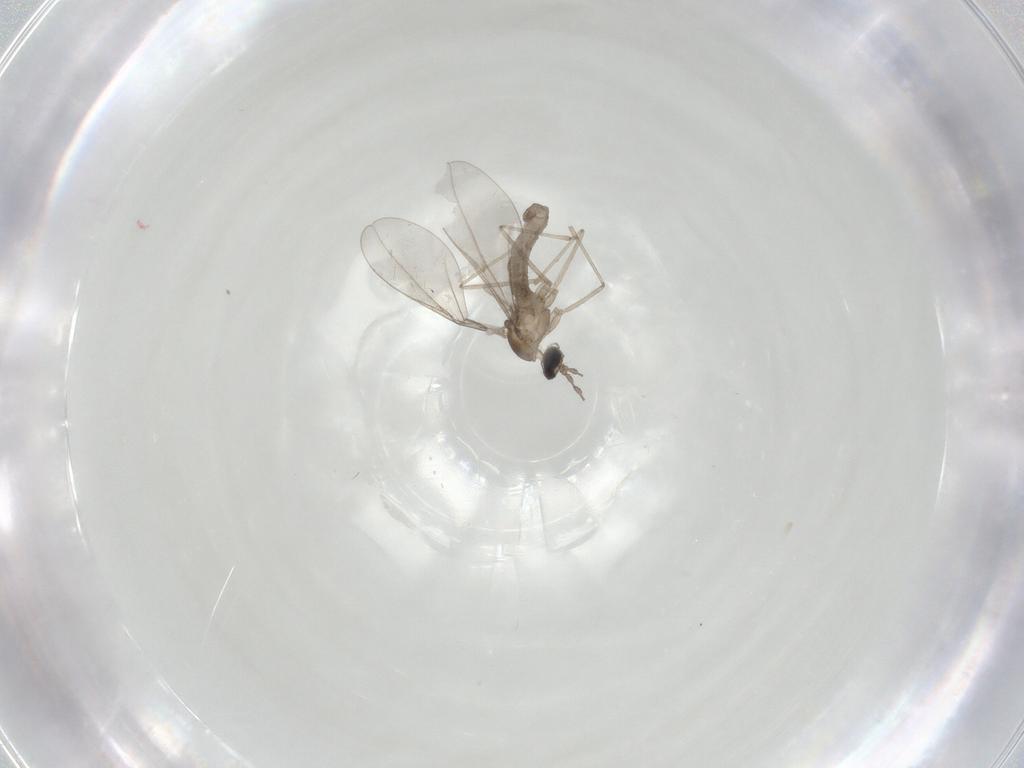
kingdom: Animalia
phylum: Arthropoda
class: Insecta
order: Diptera
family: Cecidomyiidae
